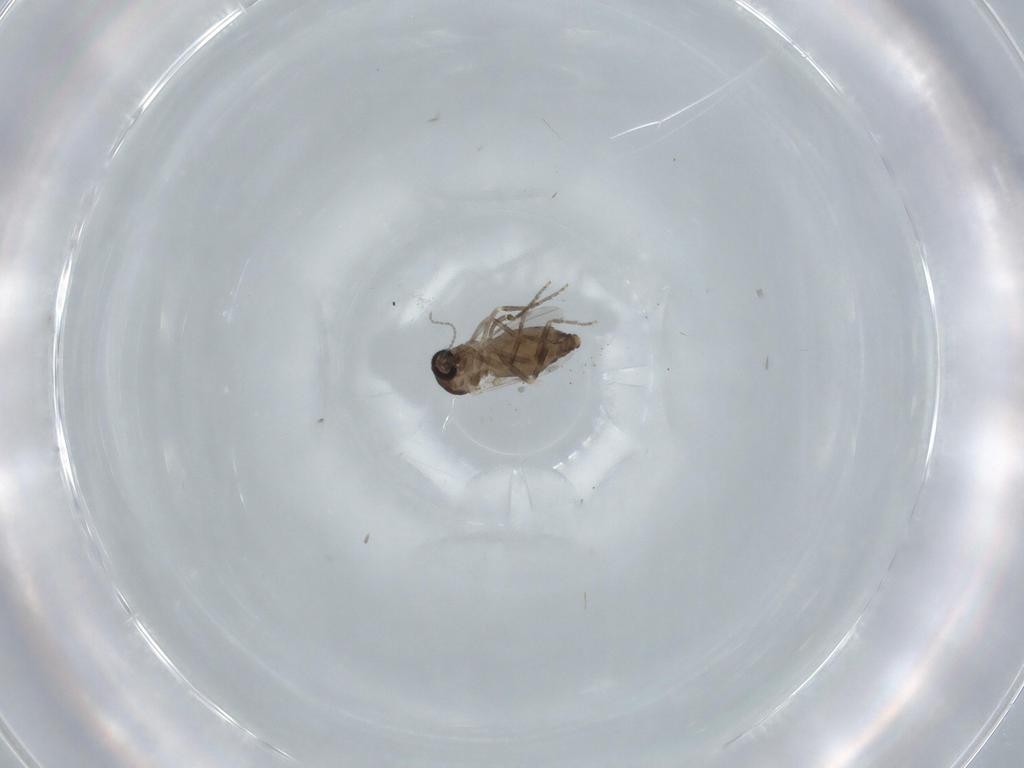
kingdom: Animalia
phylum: Arthropoda
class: Insecta
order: Diptera
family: Ceratopogonidae
